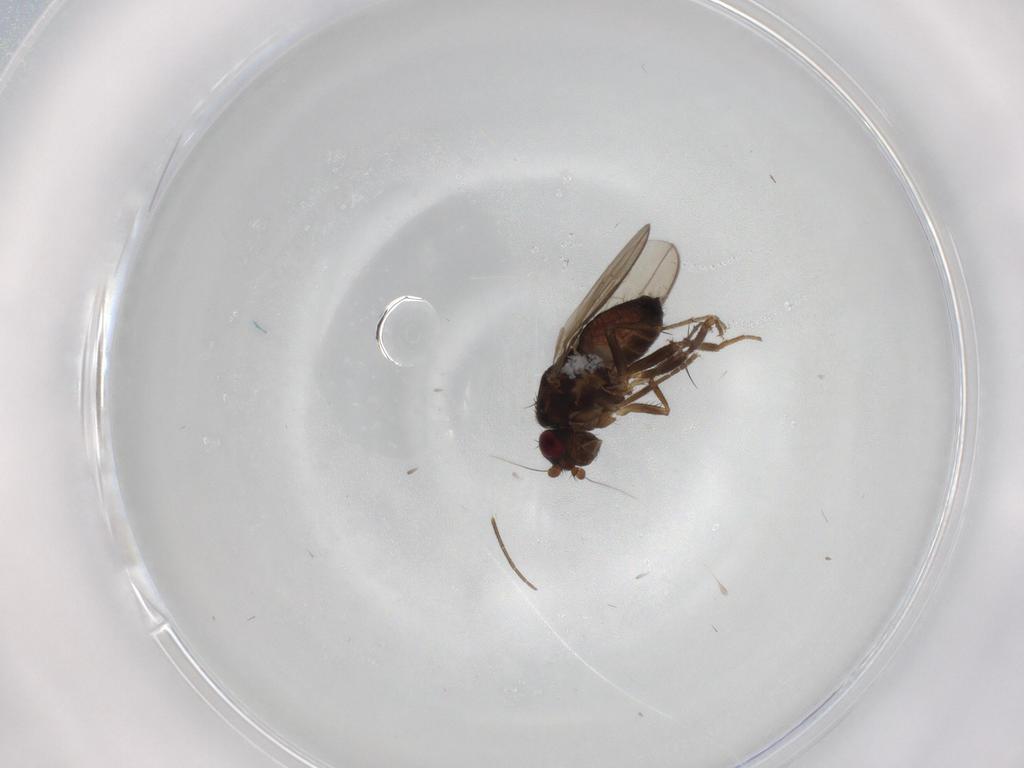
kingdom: Animalia
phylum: Arthropoda
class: Insecta
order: Diptera
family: Sphaeroceridae
